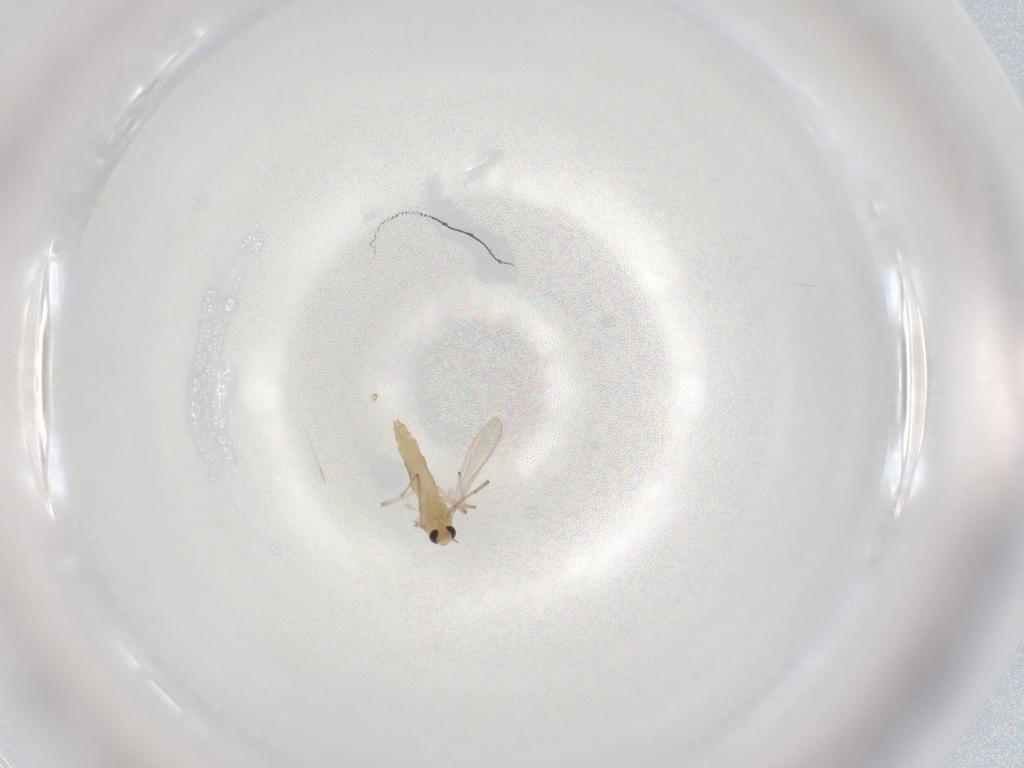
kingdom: Animalia
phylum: Arthropoda
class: Insecta
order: Diptera
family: Chironomidae
